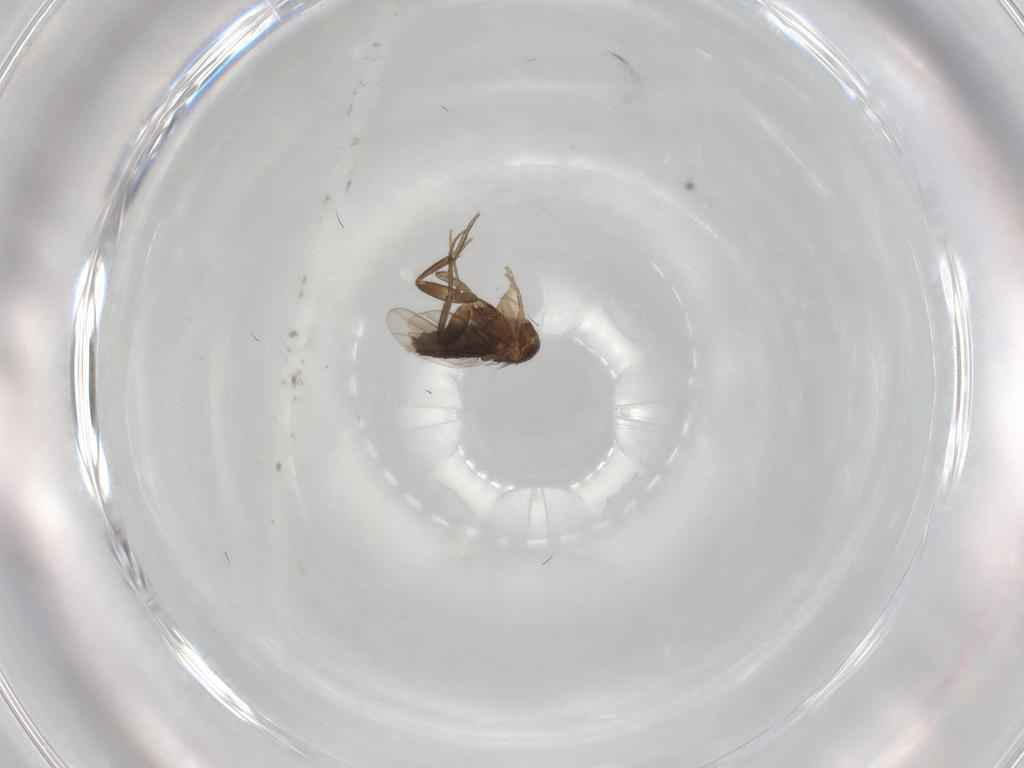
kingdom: Animalia
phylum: Arthropoda
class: Insecta
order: Diptera
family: Phoridae
